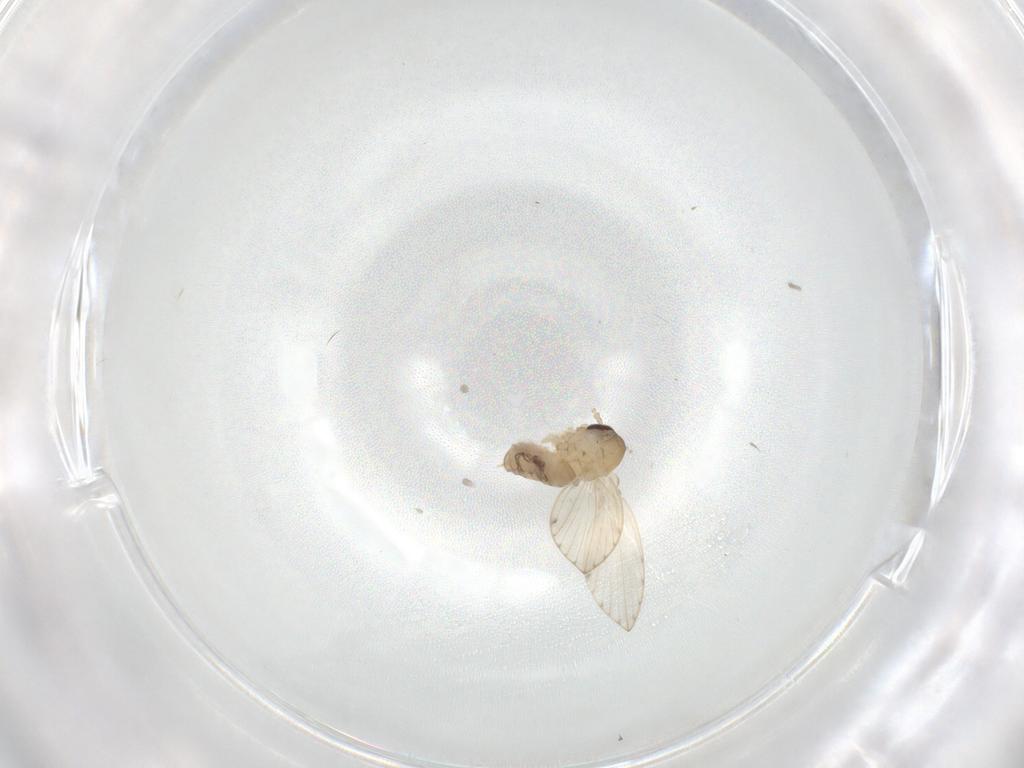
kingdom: Animalia
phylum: Arthropoda
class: Insecta
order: Diptera
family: Psychodidae
